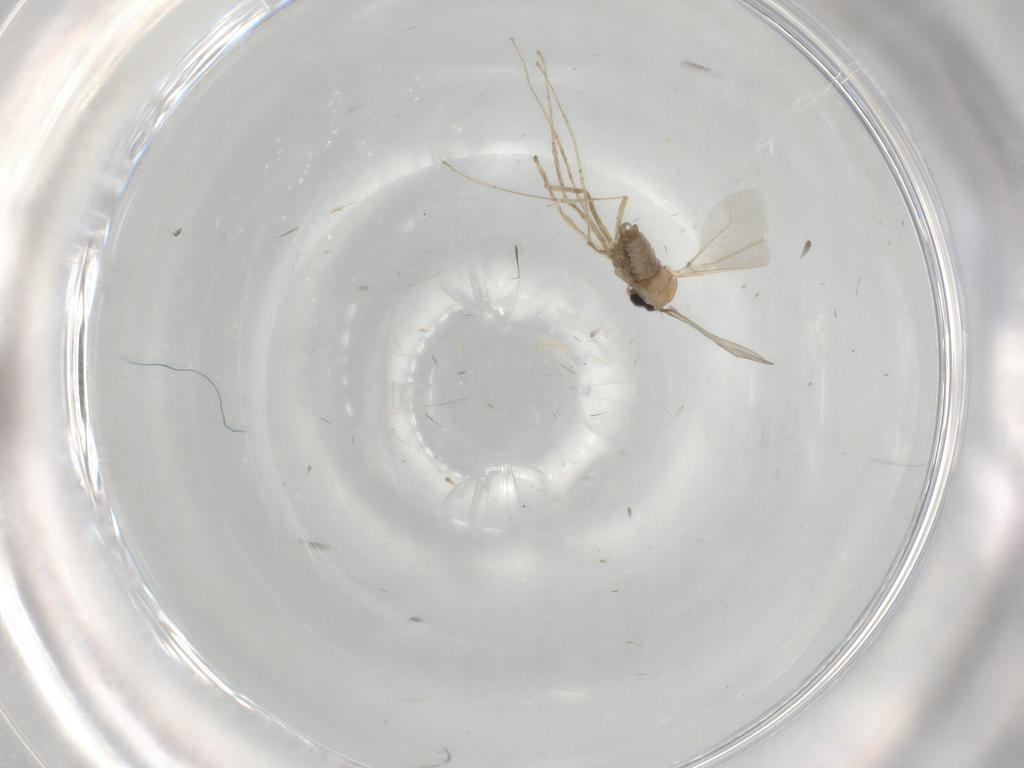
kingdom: Animalia
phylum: Arthropoda
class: Insecta
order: Diptera
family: Cecidomyiidae
